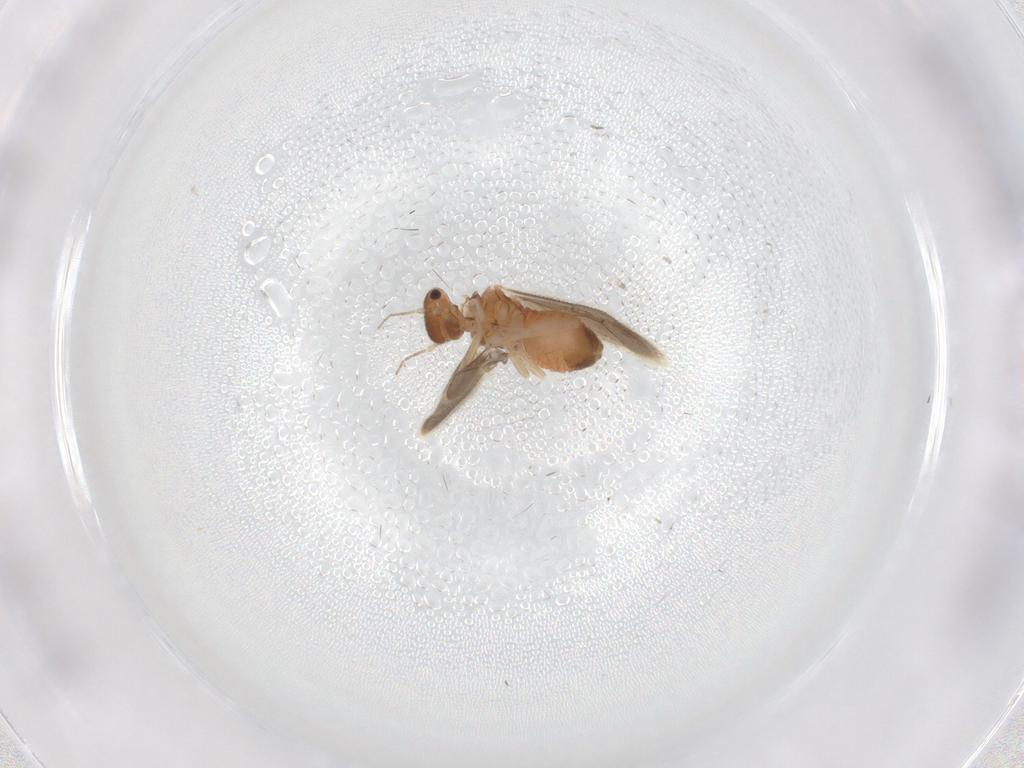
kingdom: Animalia
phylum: Arthropoda
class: Insecta
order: Psocodea
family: Archipsocidae
